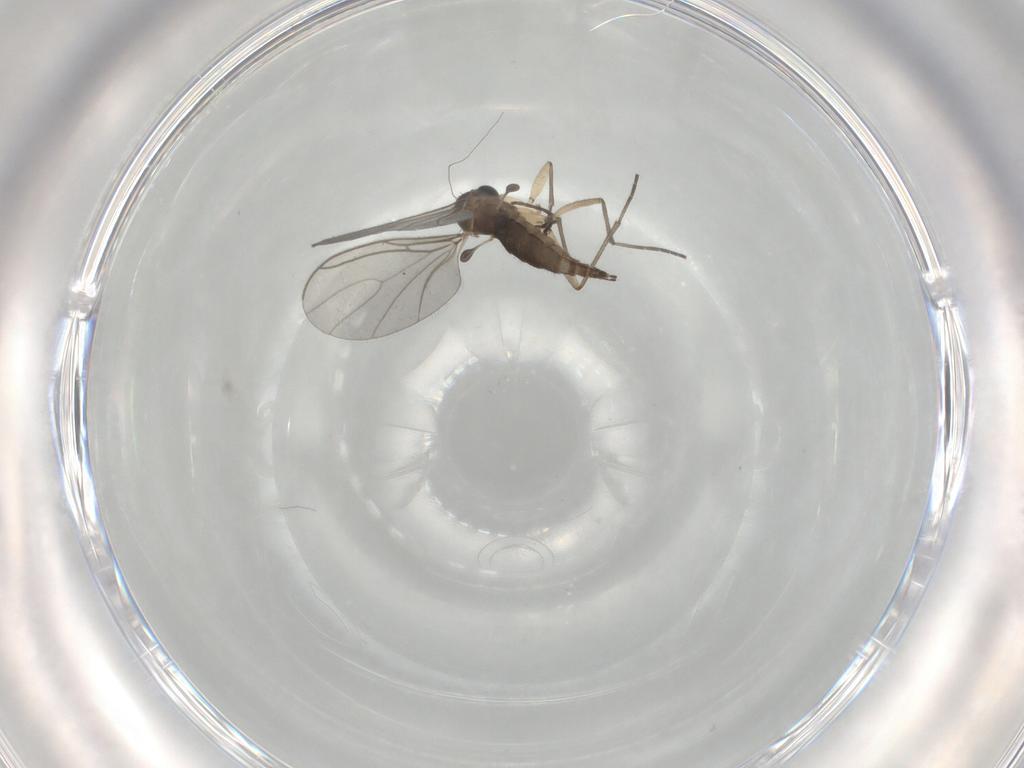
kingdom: Animalia
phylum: Arthropoda
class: Insecta
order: Diptera
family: Sciaridae
